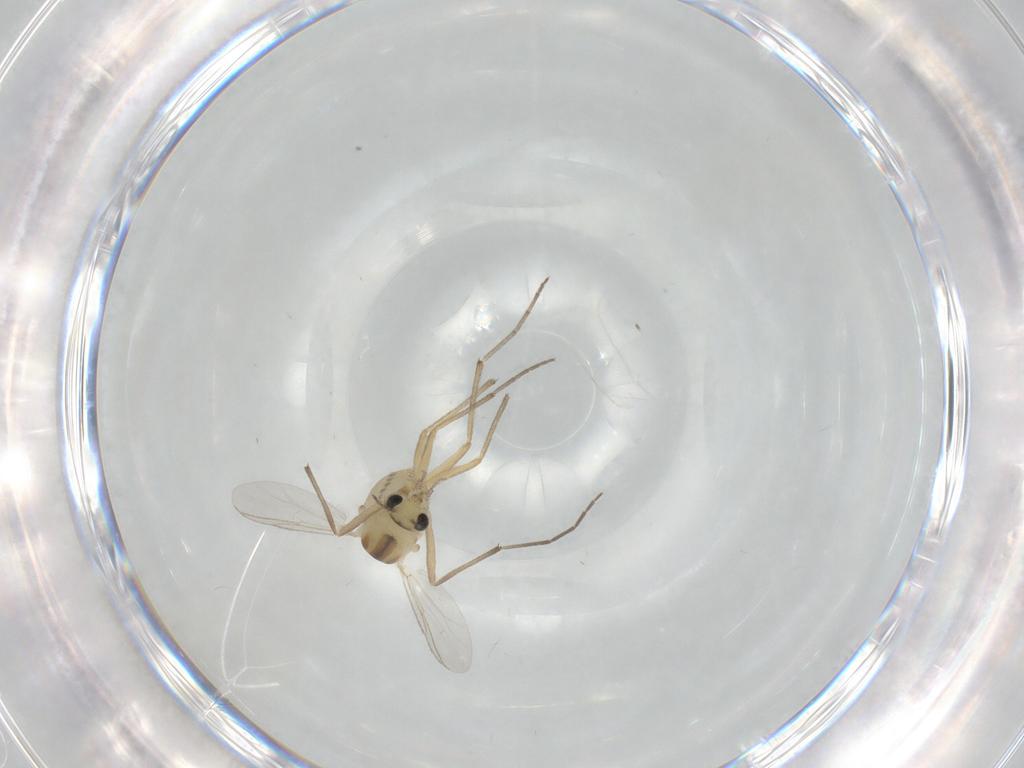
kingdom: Animalia
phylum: Arthropoda
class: Insecta
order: Diptera
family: Chironomidae
